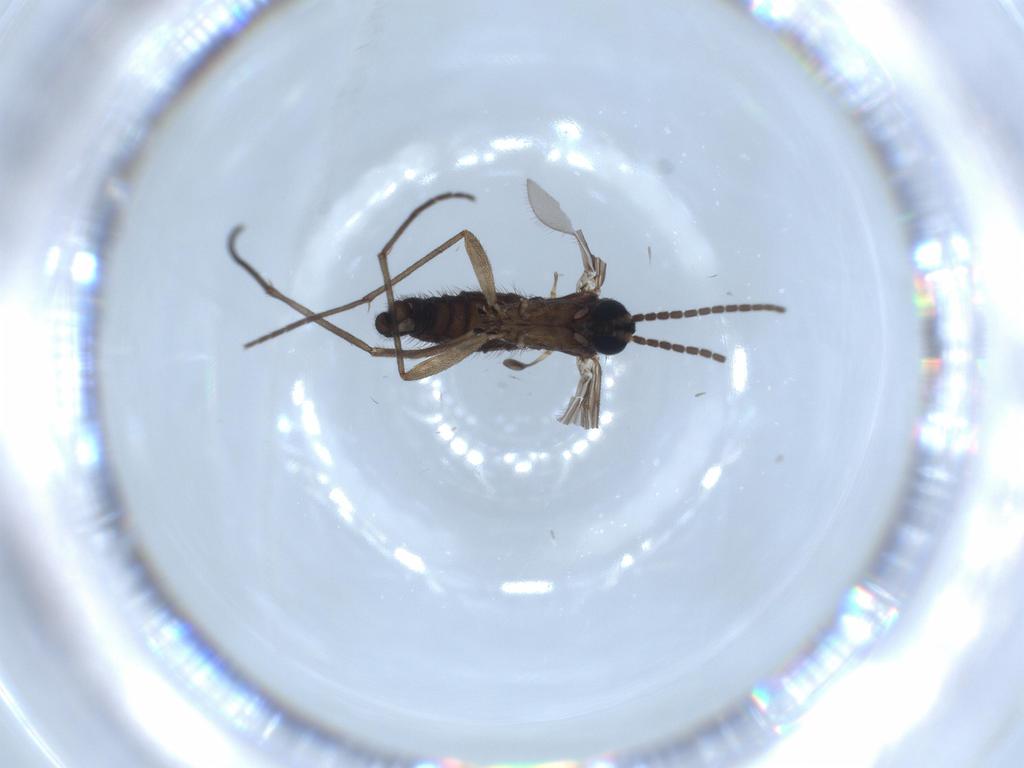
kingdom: Animalia
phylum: Arthropoda
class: Insecta
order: Diptera
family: Sciaridae
